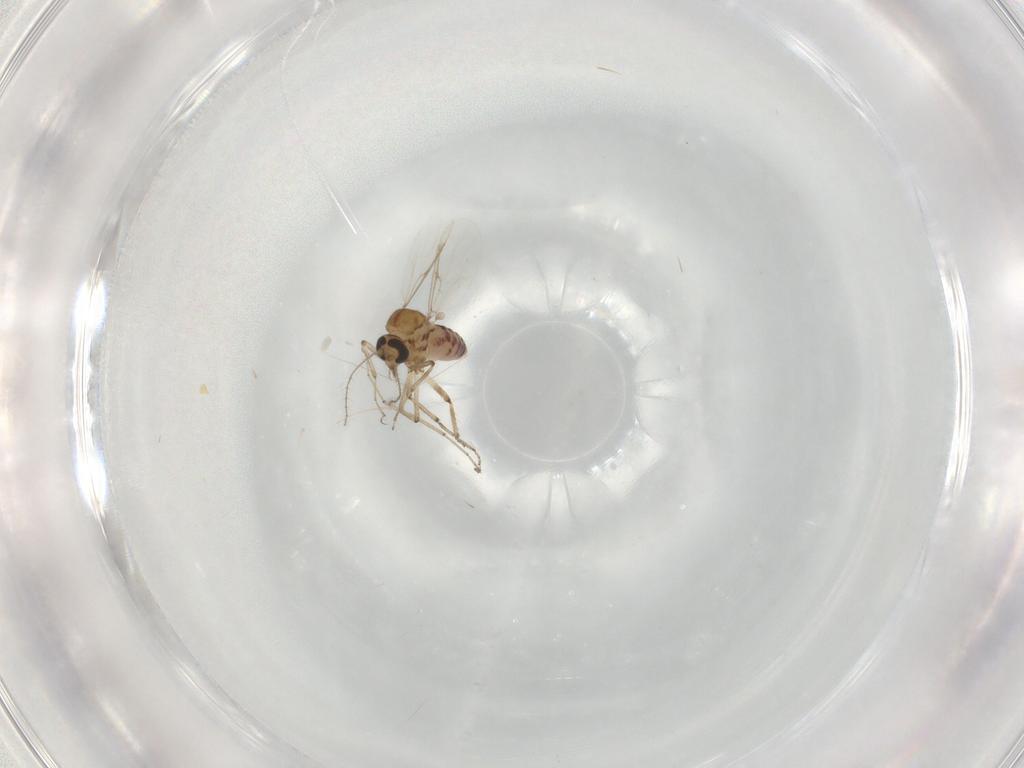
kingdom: Animalia
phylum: Arthropoda
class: Insecta
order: Diptera
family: Ceratopogonidae
